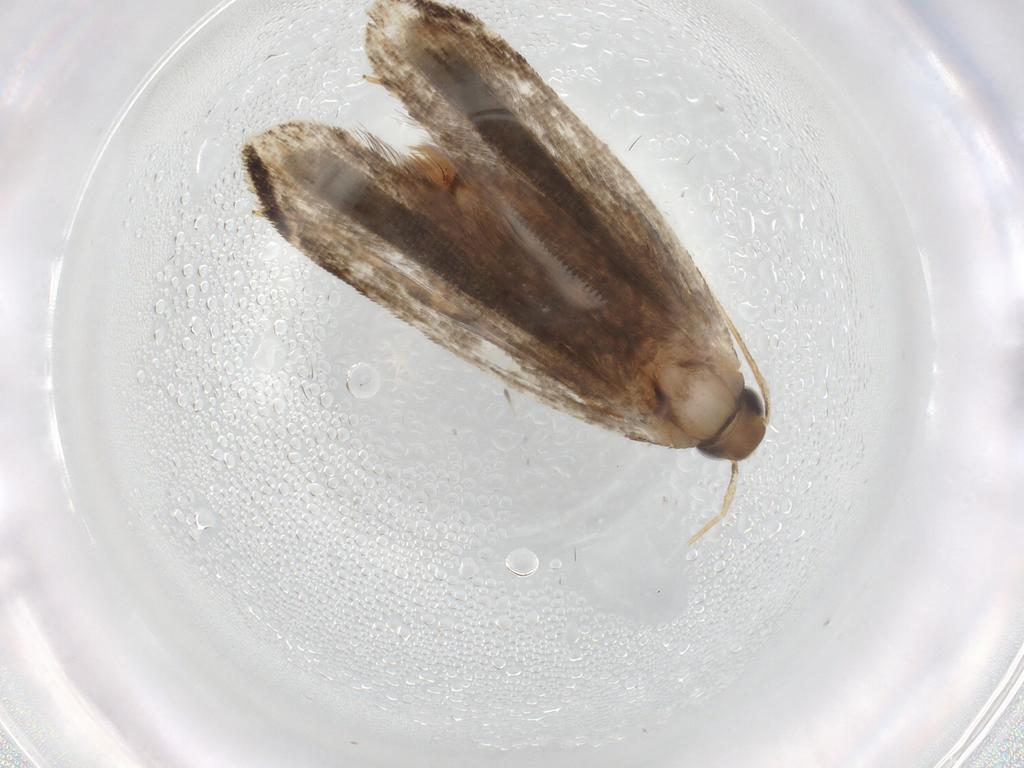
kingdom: Animalia
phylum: Arthropoda
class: Insecta
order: Lepidoptera
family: Gelechiidae
